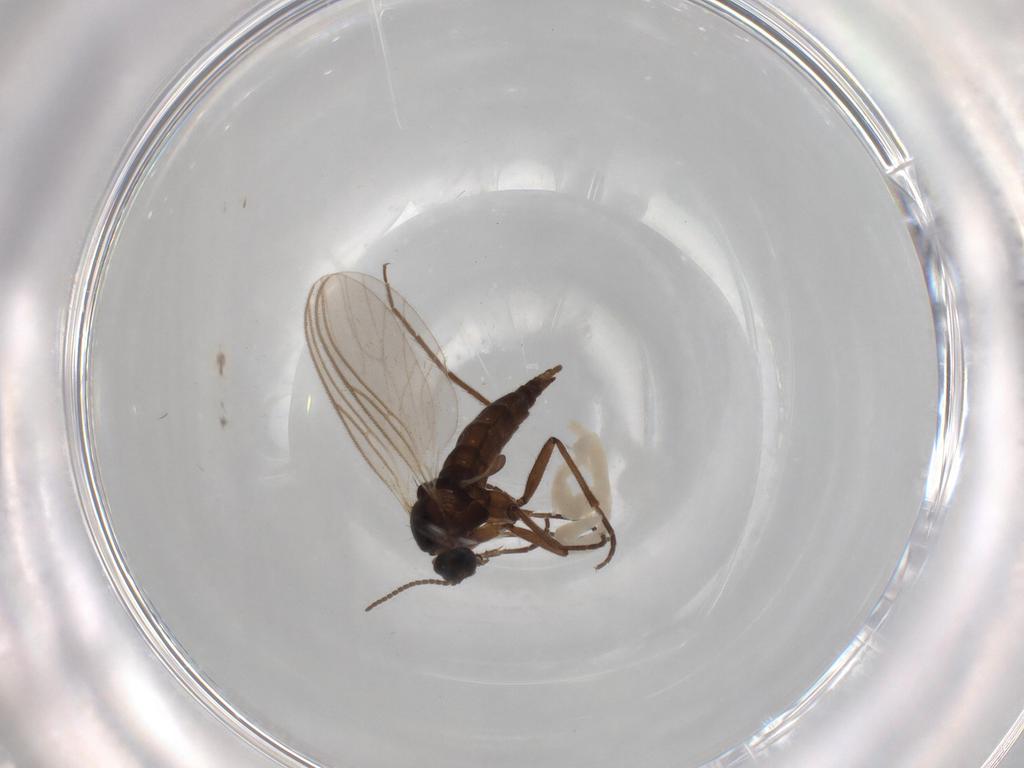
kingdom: Animalia
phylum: Arthropoda
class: Insecta
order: Diptera
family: Sciaridae
